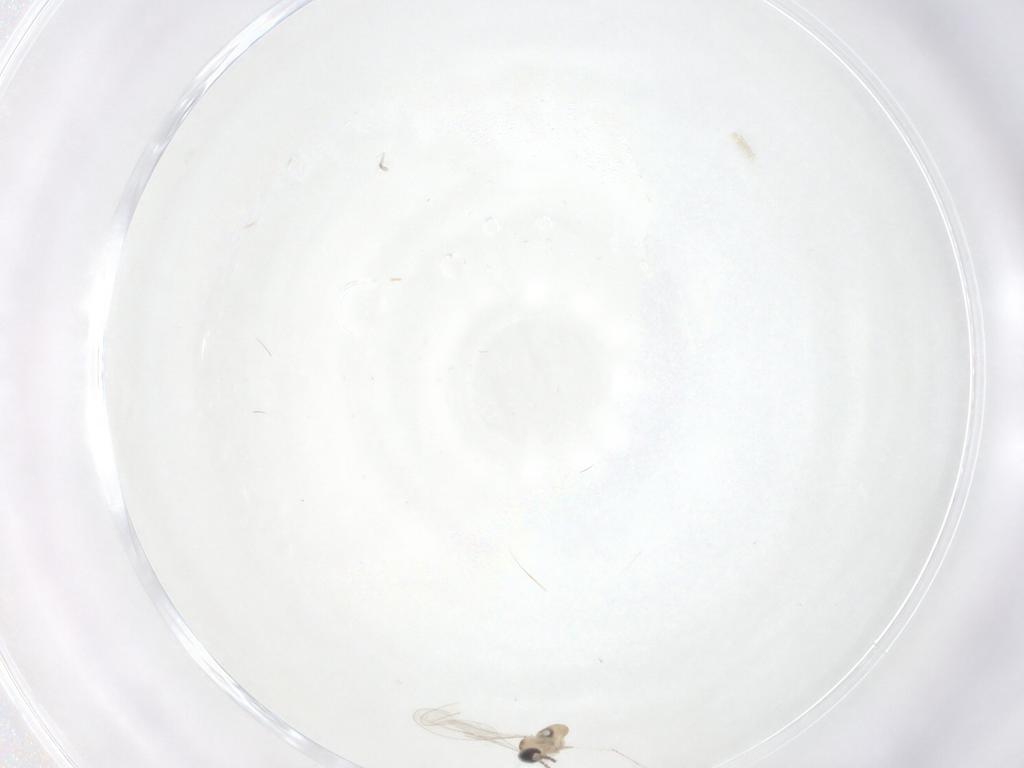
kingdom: Animalia
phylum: Arthropoda
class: Insecta
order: Diptera
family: Cecidomyiidae
